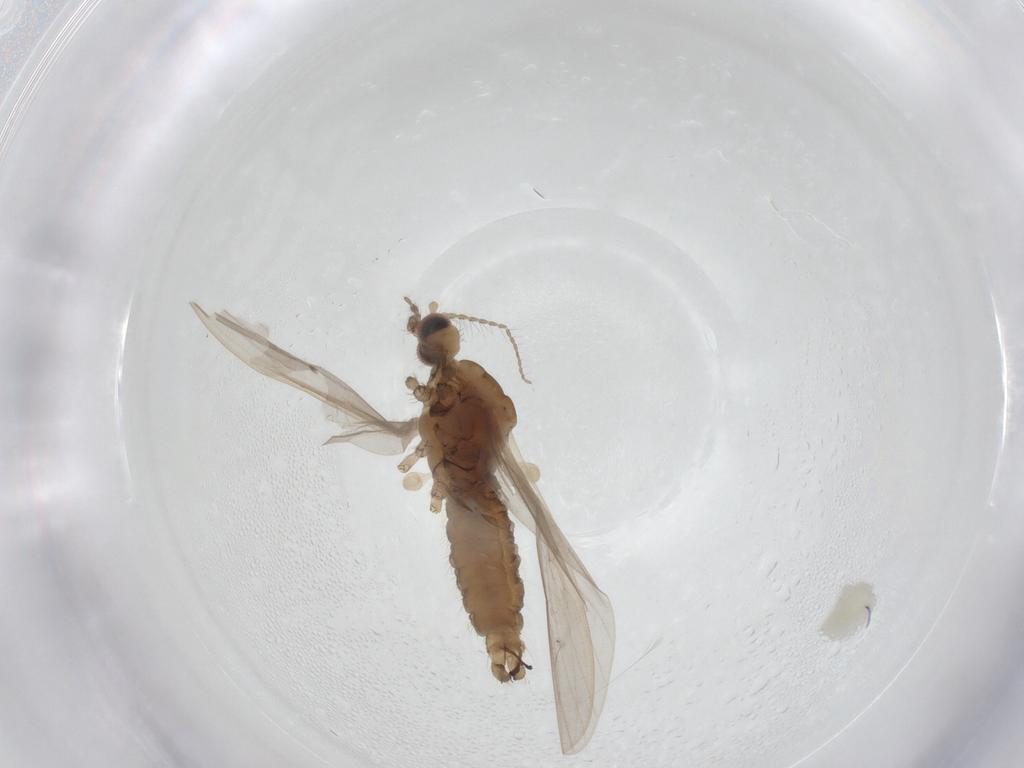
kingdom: Animalia
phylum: Arthropoda
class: Insecta
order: Diptera
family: Limoniidae
